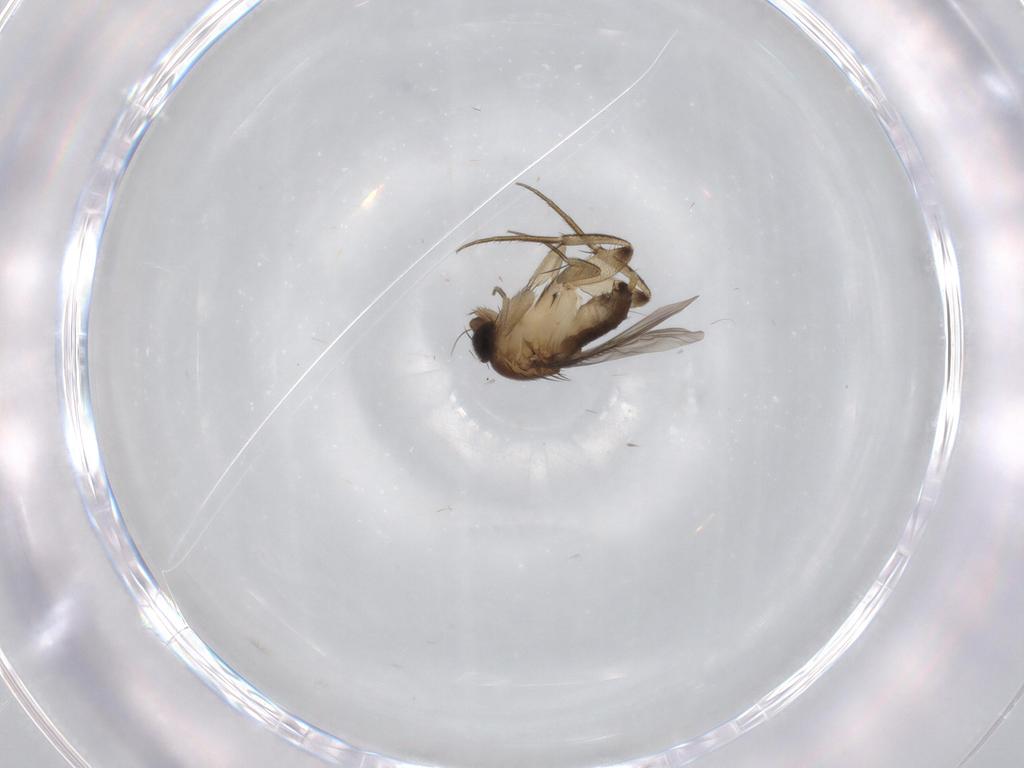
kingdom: Animalia
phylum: Arthropoda
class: Insecta
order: Diptera
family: Phoridae
